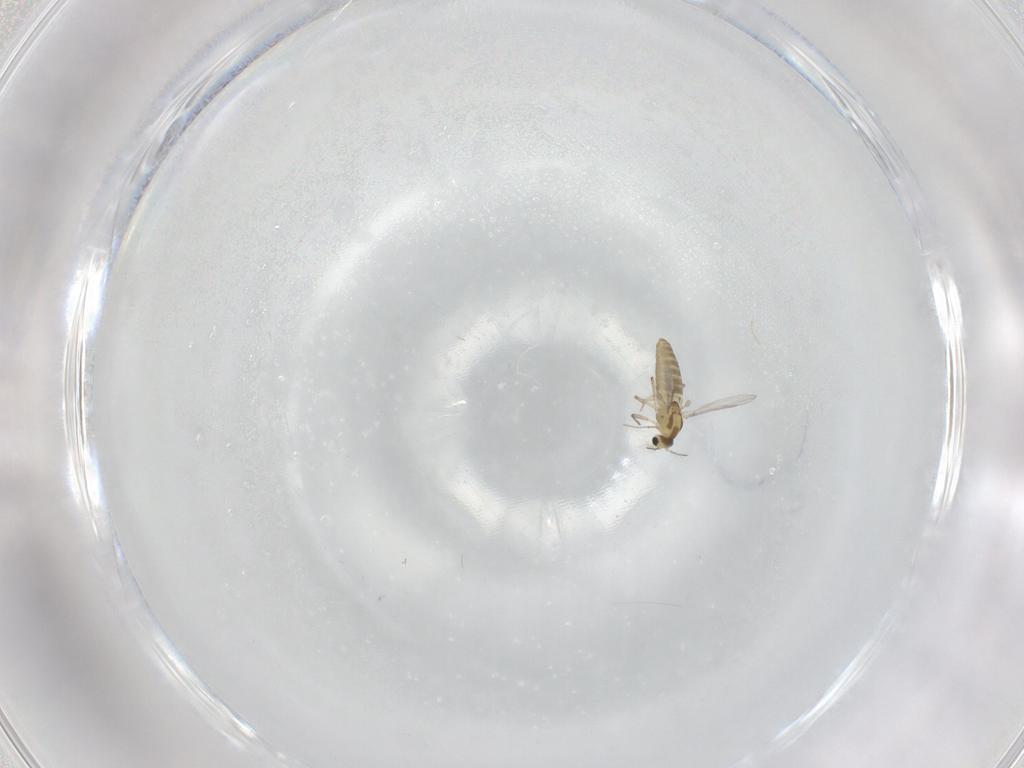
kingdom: Animalia
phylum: Arthropoda
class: Insecta
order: Diptera
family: Chironomidae
